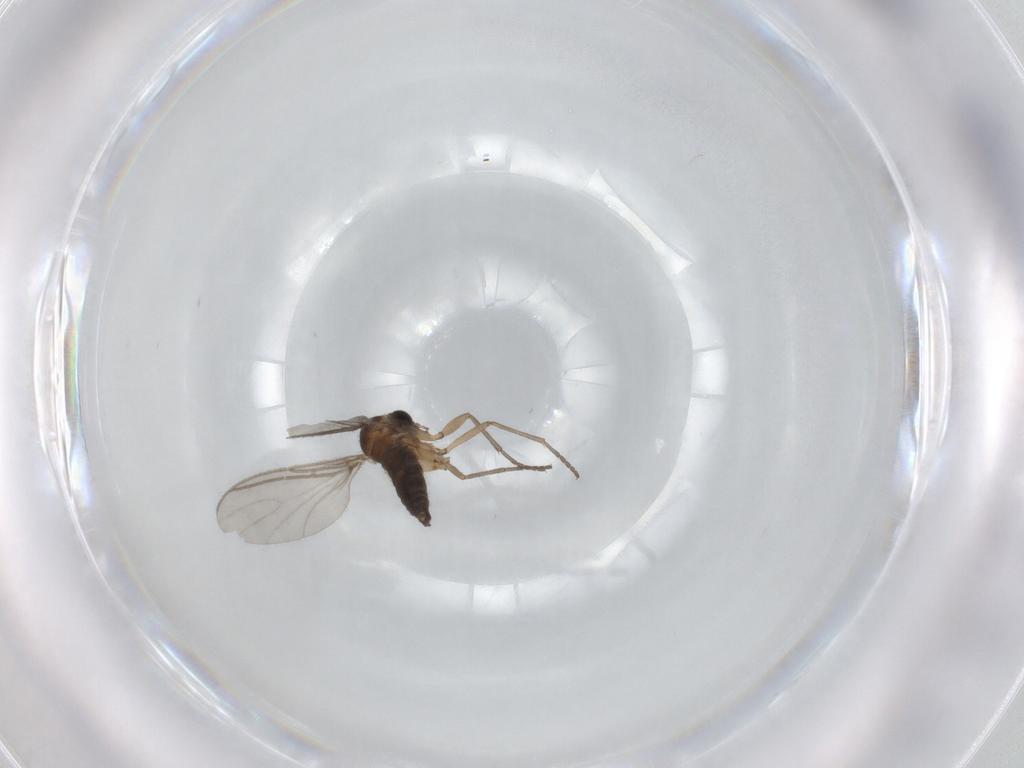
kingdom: Animalia
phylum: Arthropoda
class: Insecta
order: Diptera
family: Sciaridae
